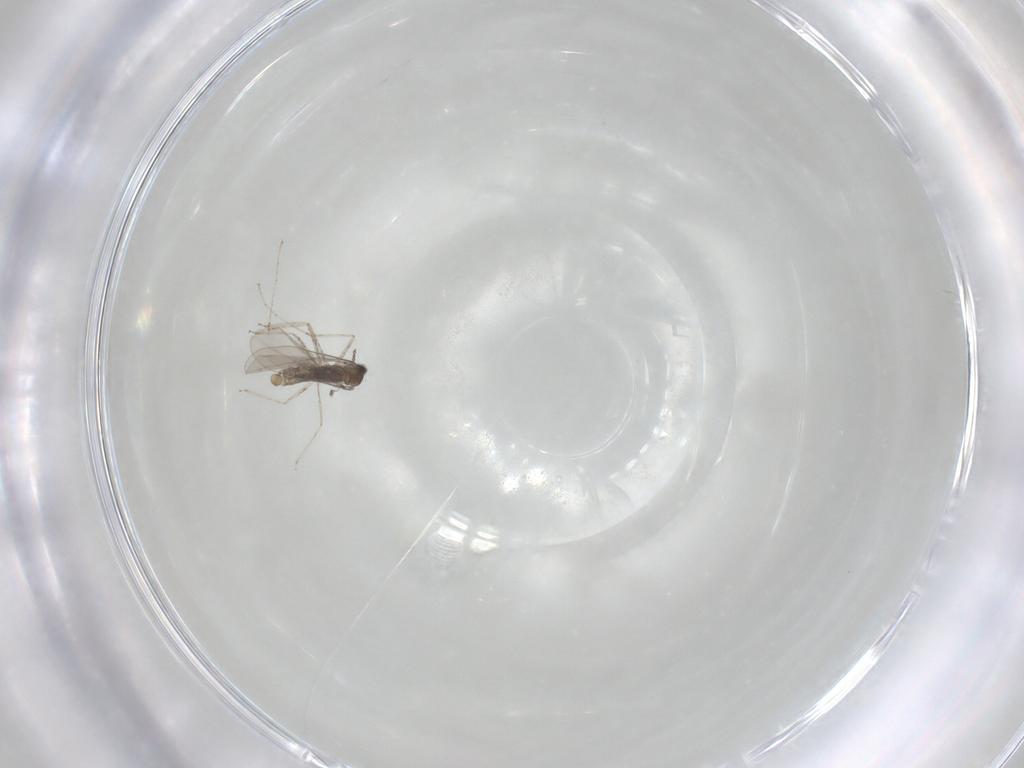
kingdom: Animalia
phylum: Arthropoda
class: Insecta
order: Diptera
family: Cecidomyiidae
